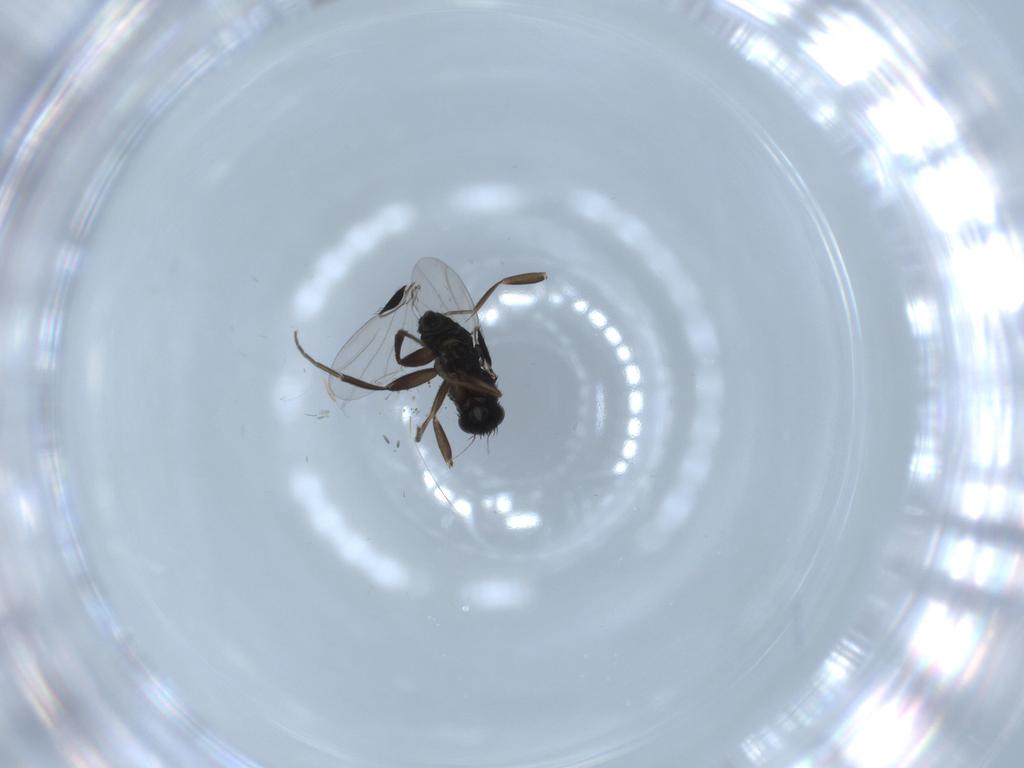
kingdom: Animalia
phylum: Arthropoda
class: Insecta
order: Diptera
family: Phoridae
